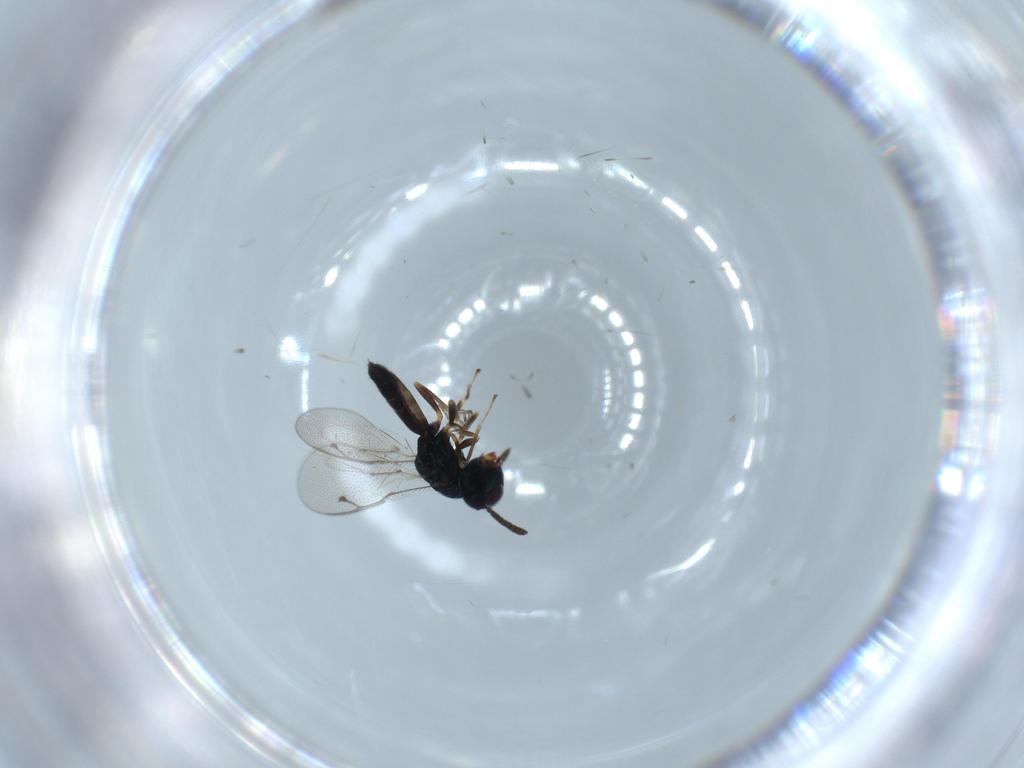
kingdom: Animalia
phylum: Arthropoda
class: Insecta
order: Hymenoptera
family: Pteromalidae
